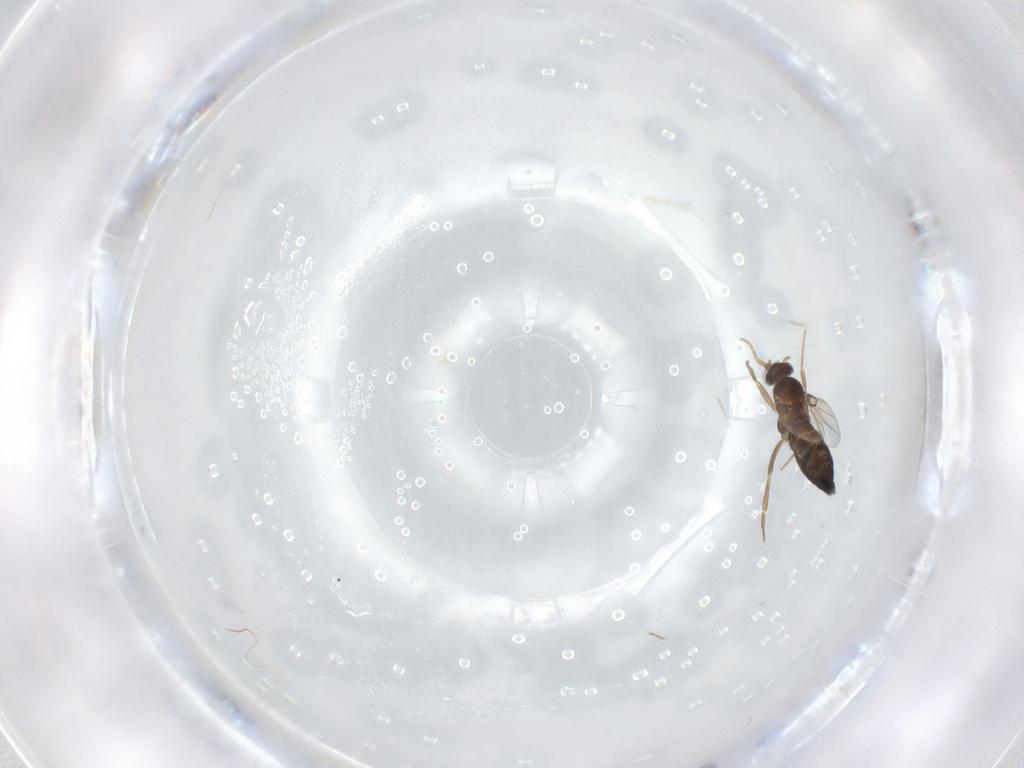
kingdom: Animalia
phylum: Arthropoda
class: Insecta
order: Diptera
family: Phoridae
